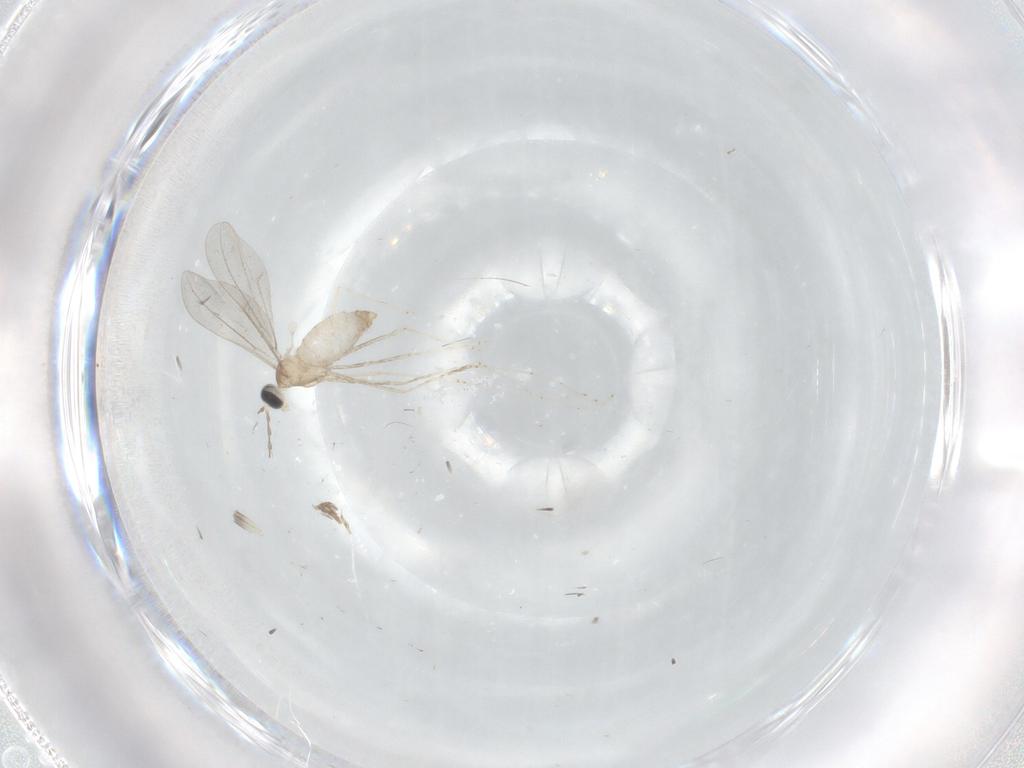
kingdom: Animalia
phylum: Arthropoda
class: Insecta
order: Diptera
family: Cecidomyiidae
